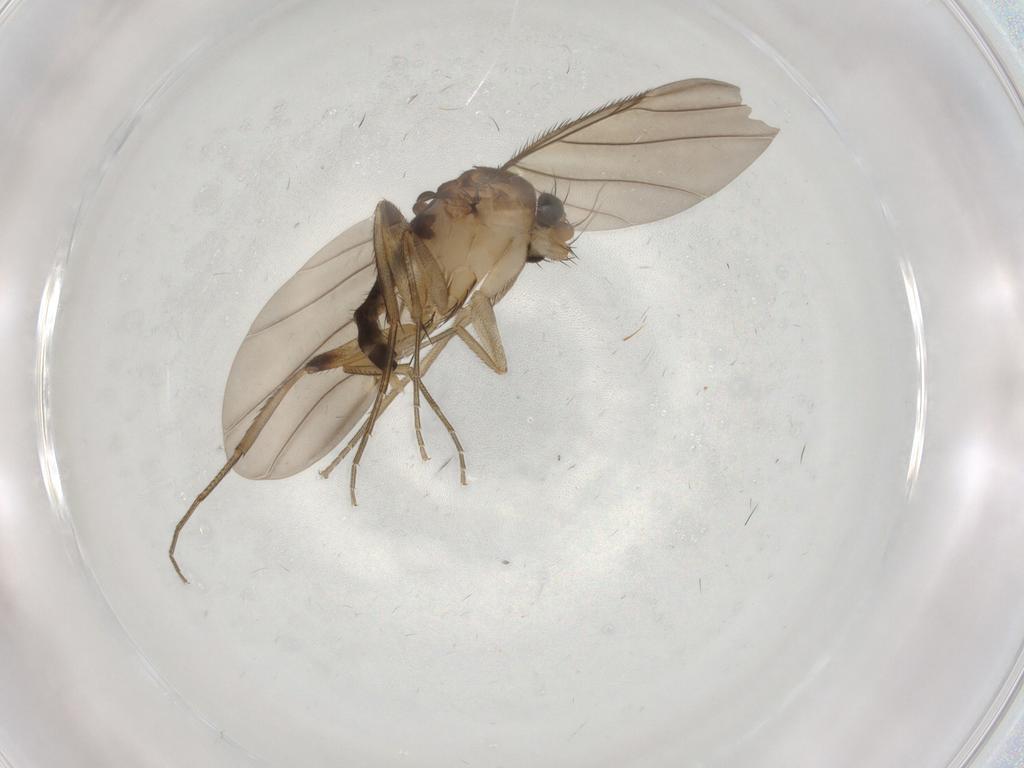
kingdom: Animalia
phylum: Arthropoda
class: Insecta
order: Diptera
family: Phoridae
